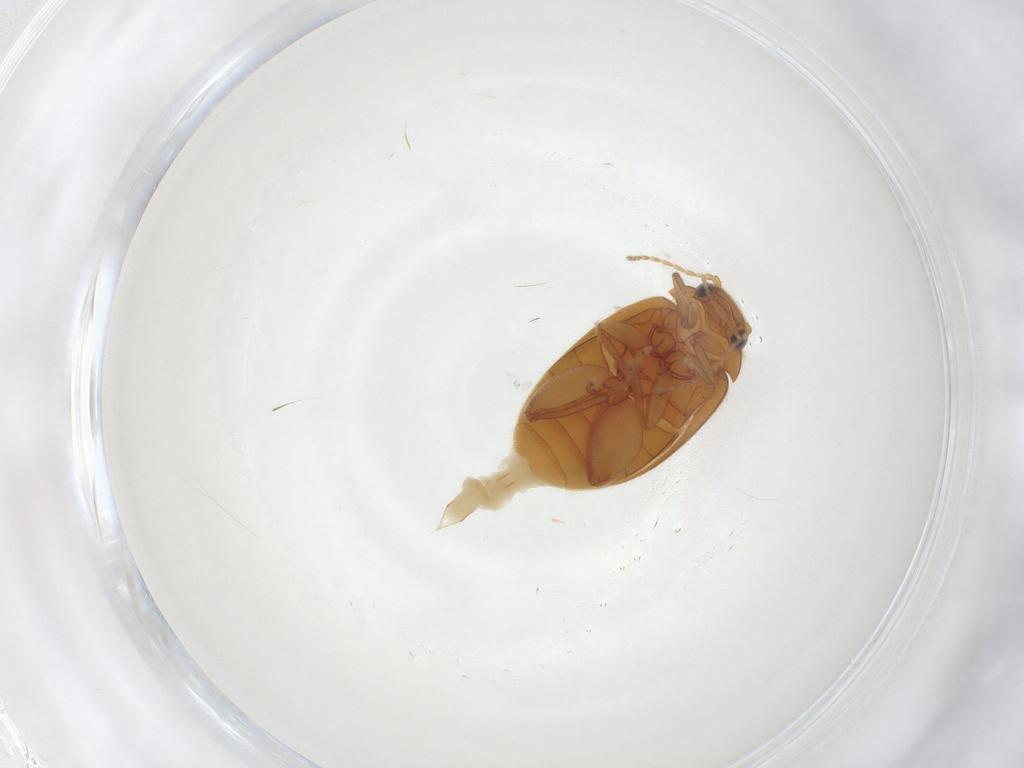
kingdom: Animalia
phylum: Arthropoda
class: Insecta
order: Coleoptera
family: Scirtidae
